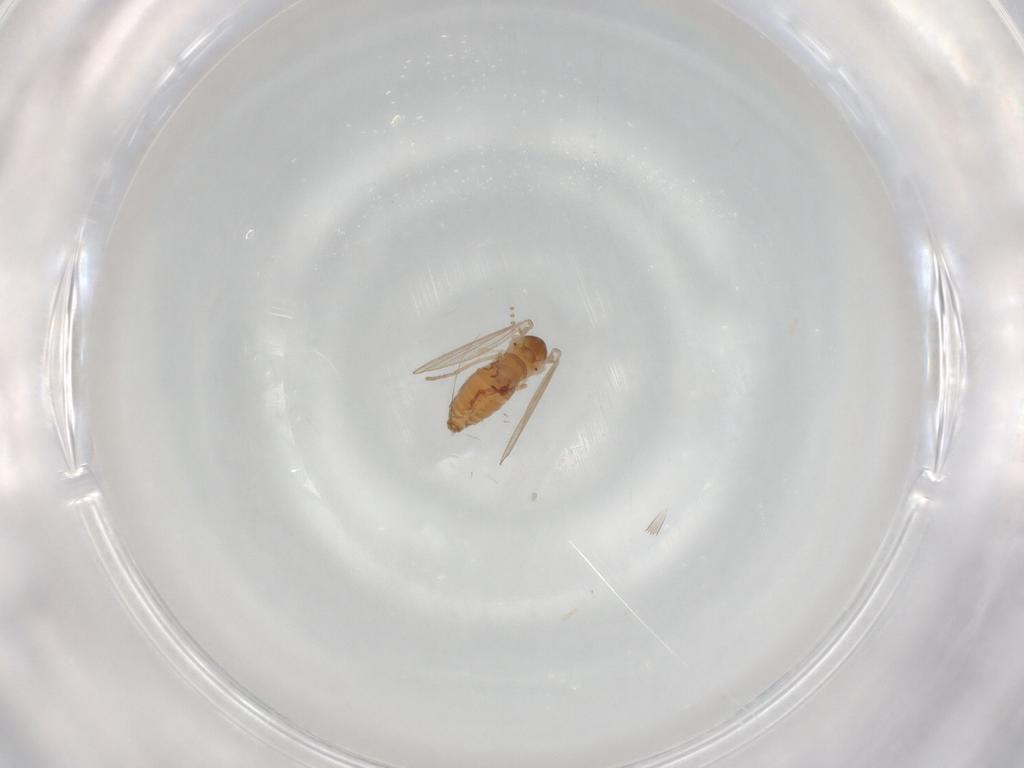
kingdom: Animalia
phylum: Arthropoda
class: Insecta
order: Diptera
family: Psychodidae
